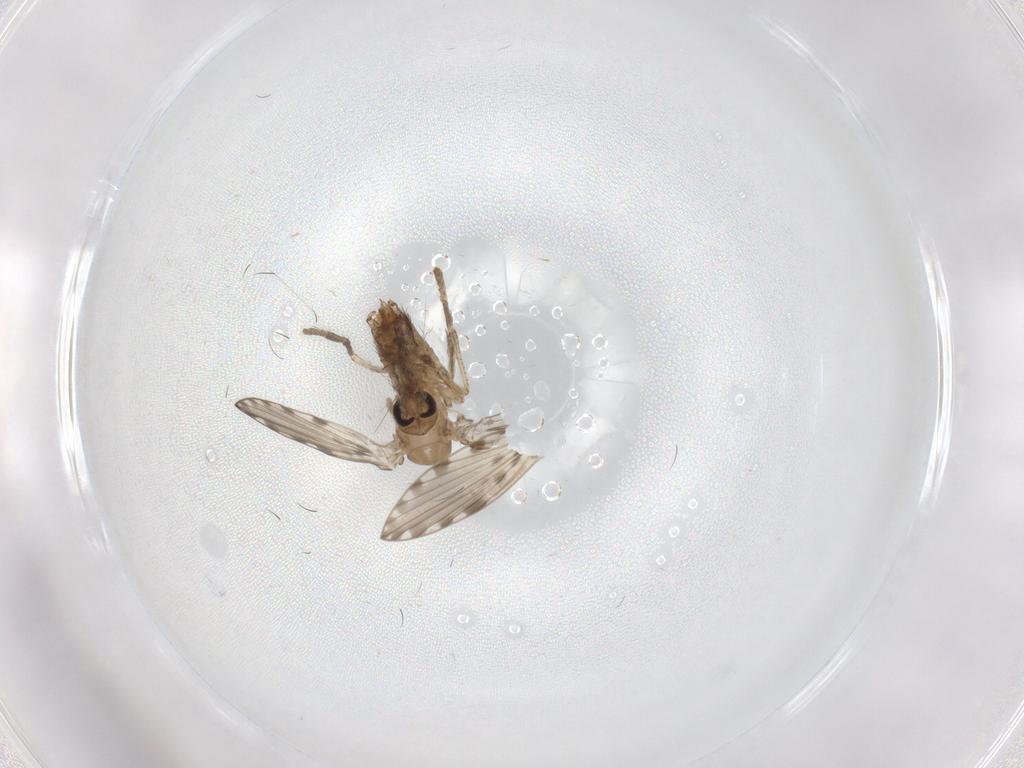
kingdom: Animalia
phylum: Arthropoda
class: Insecta
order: Diptera
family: Psychodidae
